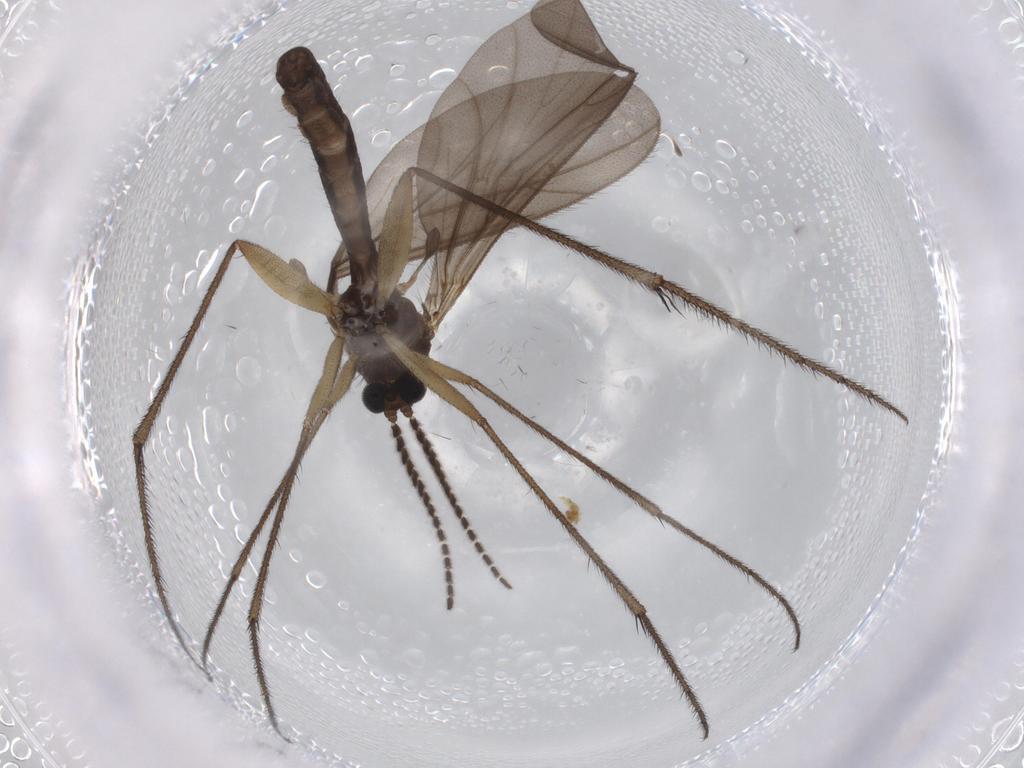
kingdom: Animalia
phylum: Arthropoda
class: Insecta
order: Diptera
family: Cecidomyiidae
